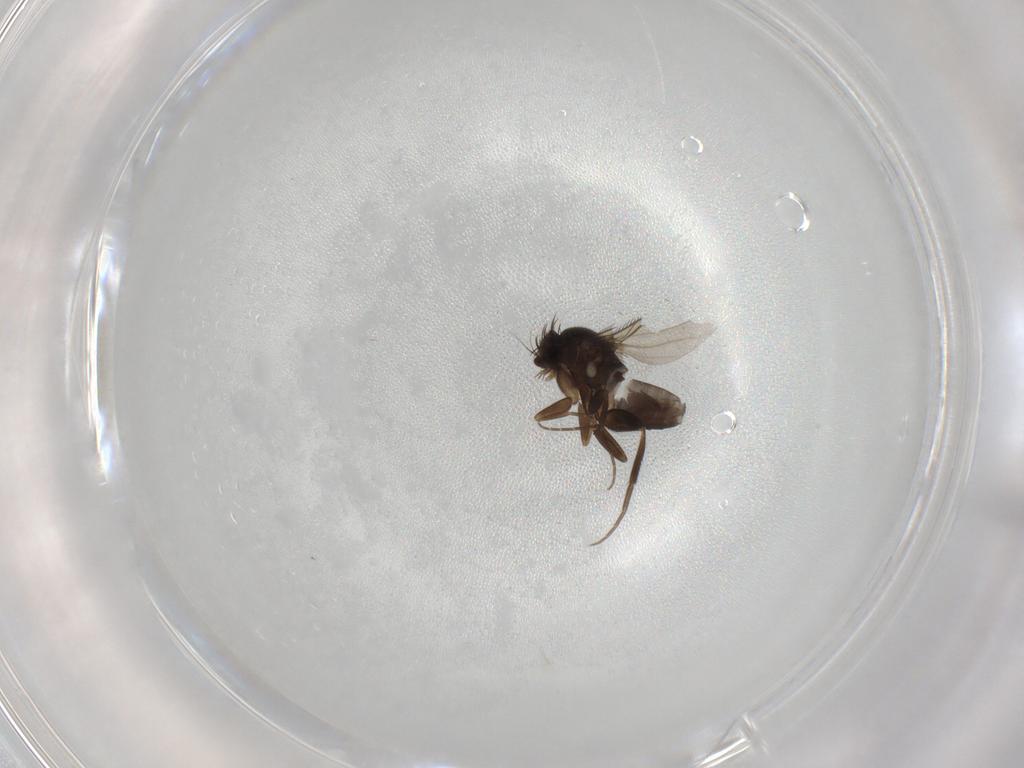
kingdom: Animalia
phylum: Arthropoda
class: Insecta
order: Diptera
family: Phoridae
